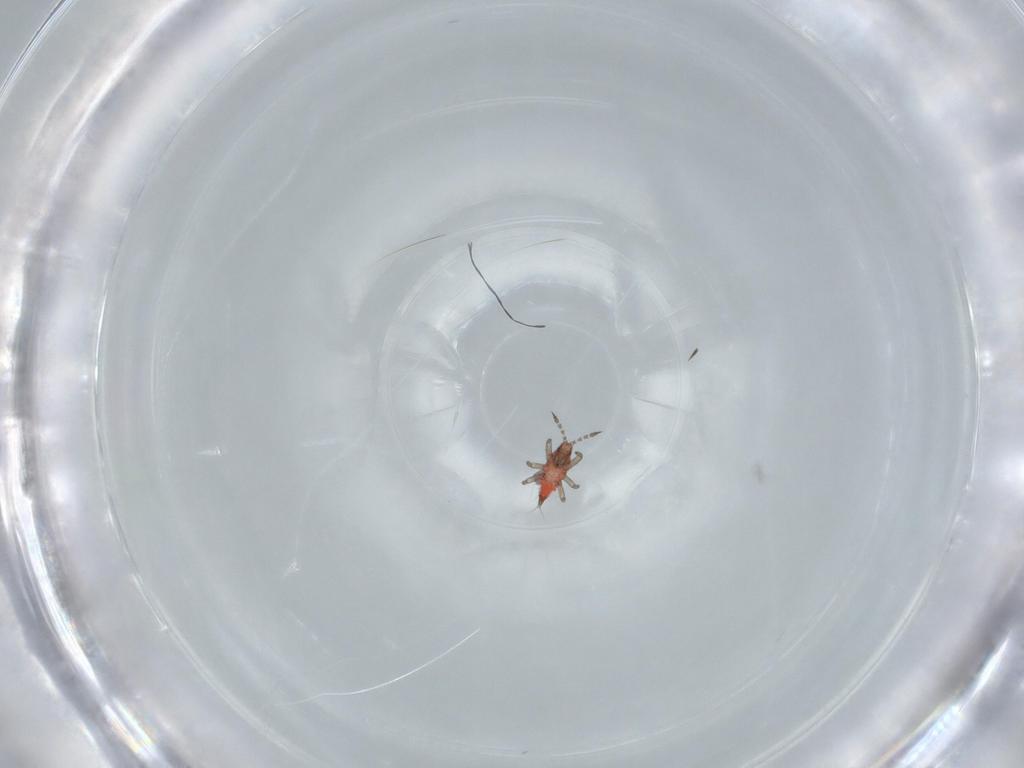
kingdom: Animalia
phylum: Arthropoda
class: Insecta
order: Thysanoptera
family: Phlaeothripidae
